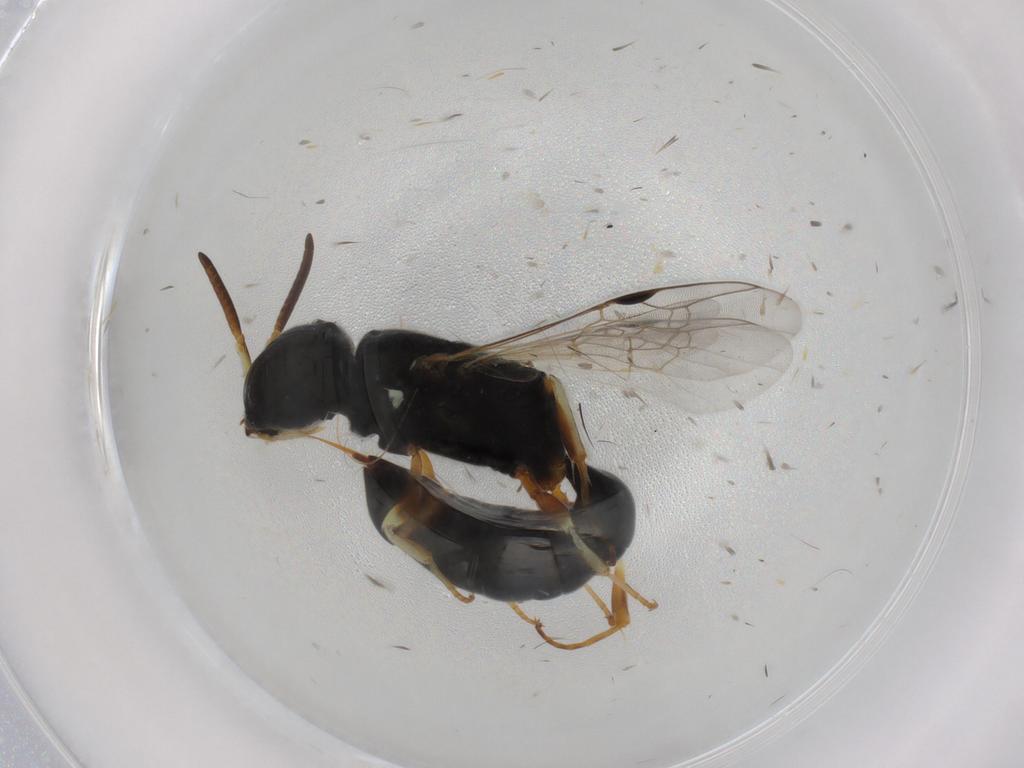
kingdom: Animalia
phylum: Arthropoda
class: Insecta
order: Hymenoptera
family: Pemphredonidae
